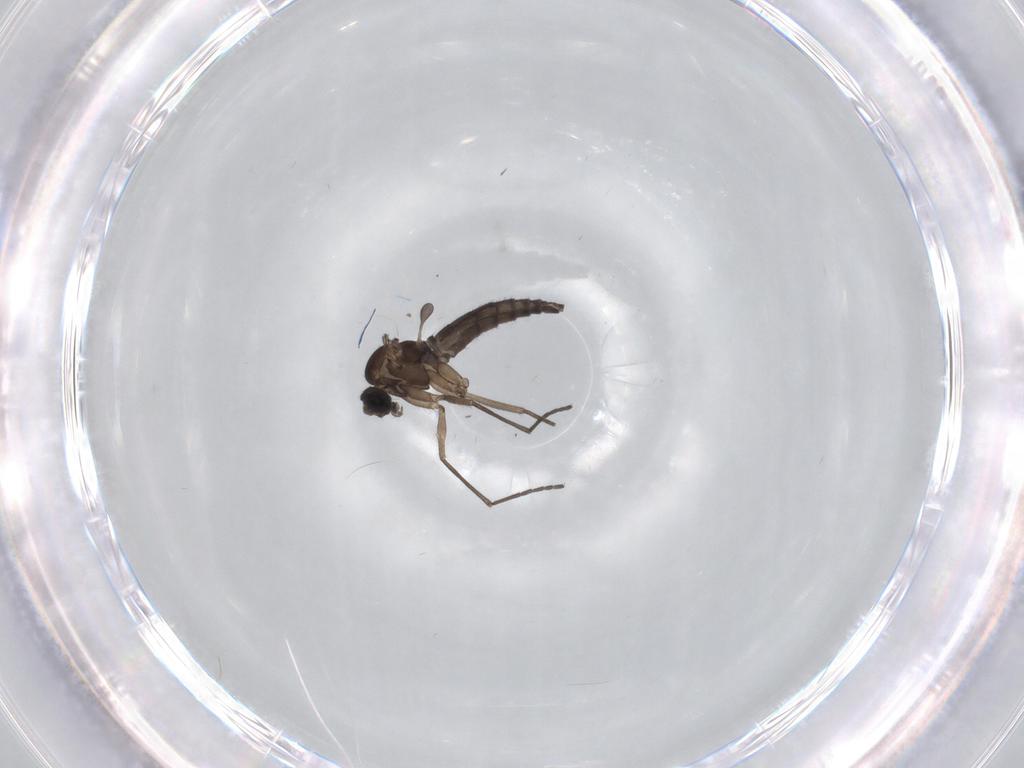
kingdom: Animalia
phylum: Arthropoda
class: Insecta
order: Diptera
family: Sciaridae
